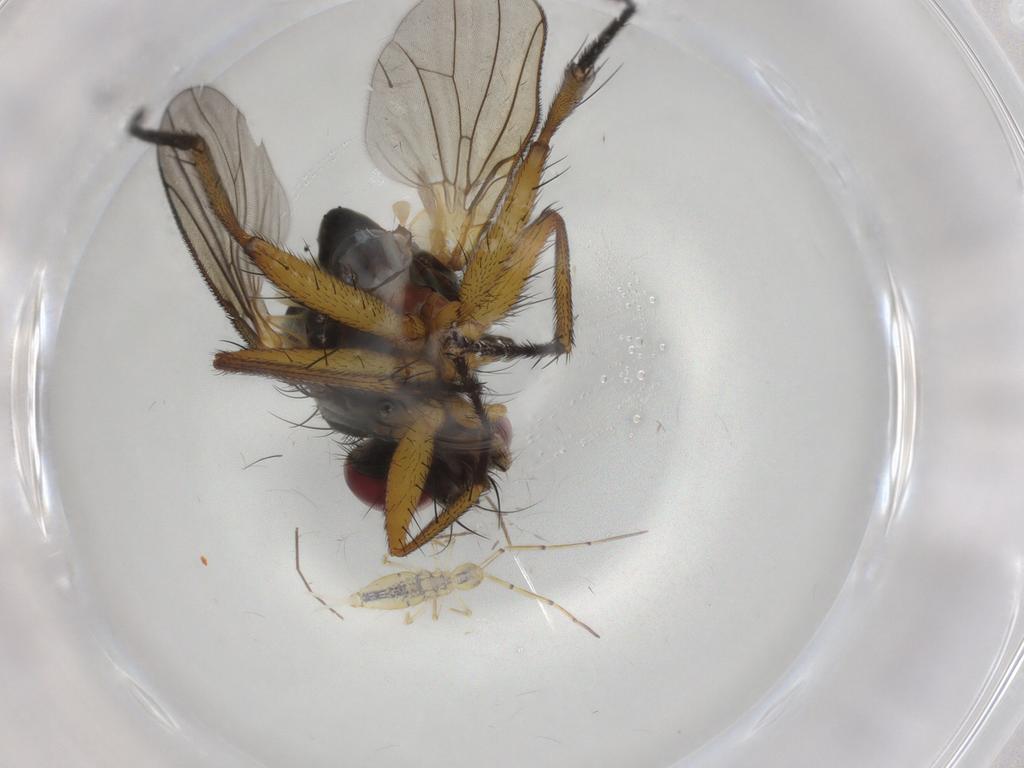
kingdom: Animalia
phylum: Arthropoda
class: Insecta
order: Diptera
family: Muscidae
